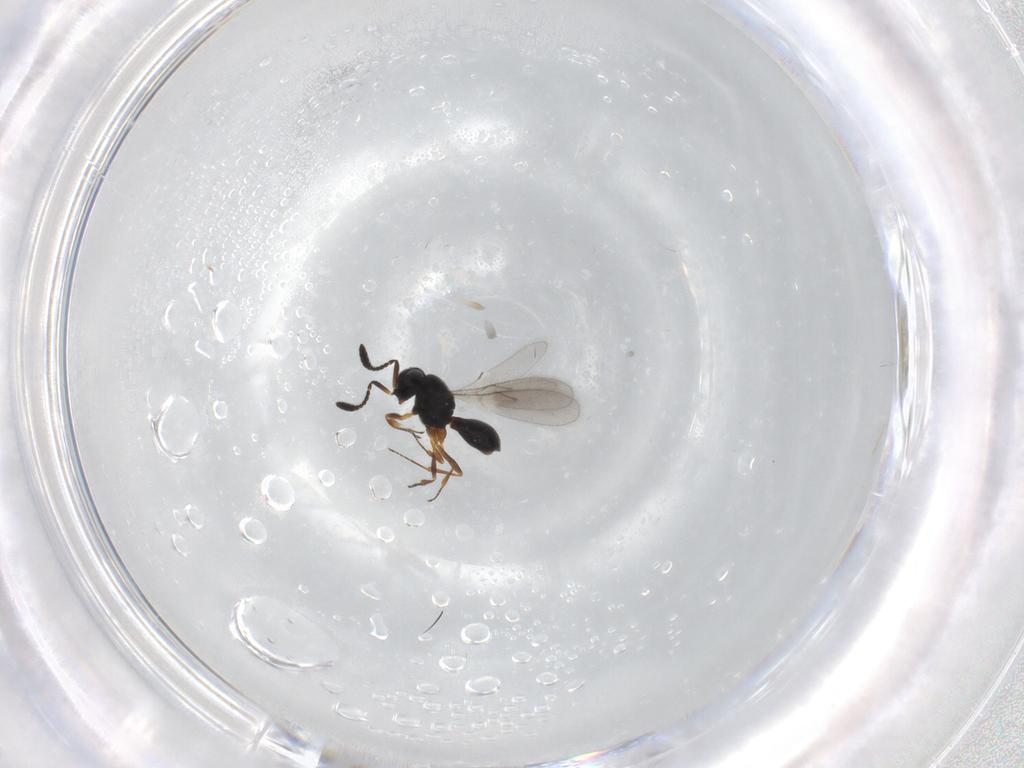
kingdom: Animalia
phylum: Arthropoda
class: Insecta
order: Hymenoptera
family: Scelionidae
